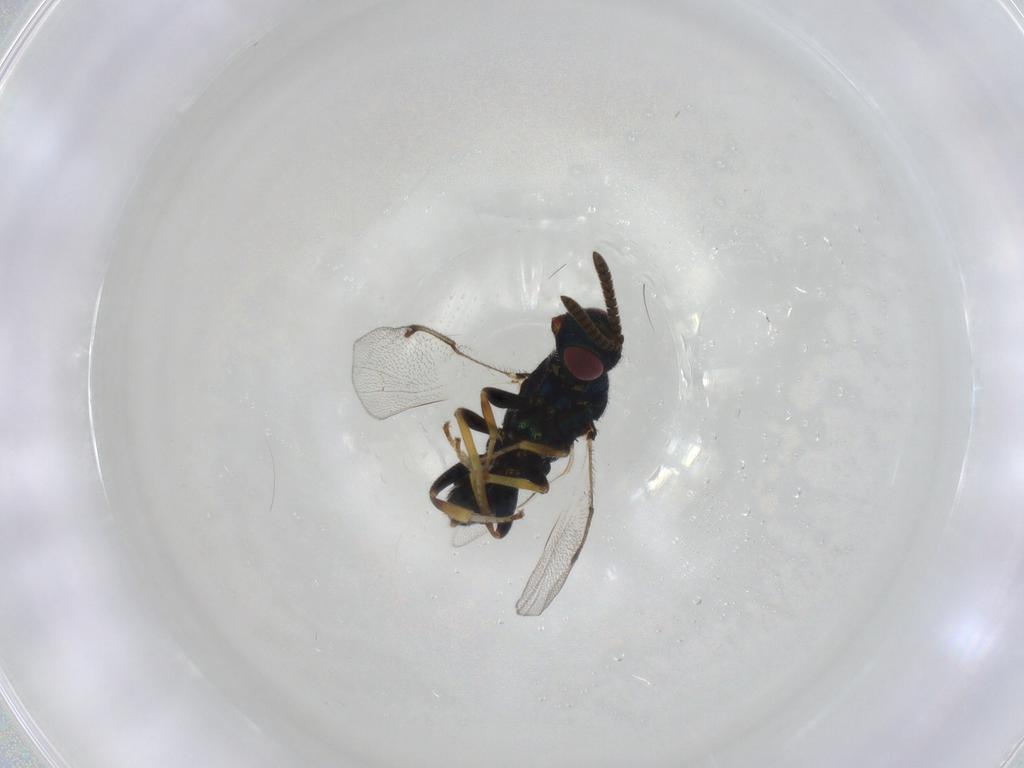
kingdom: Animalia
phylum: Arthropoda
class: Insecta
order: Hymenoptera
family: Torymidae
